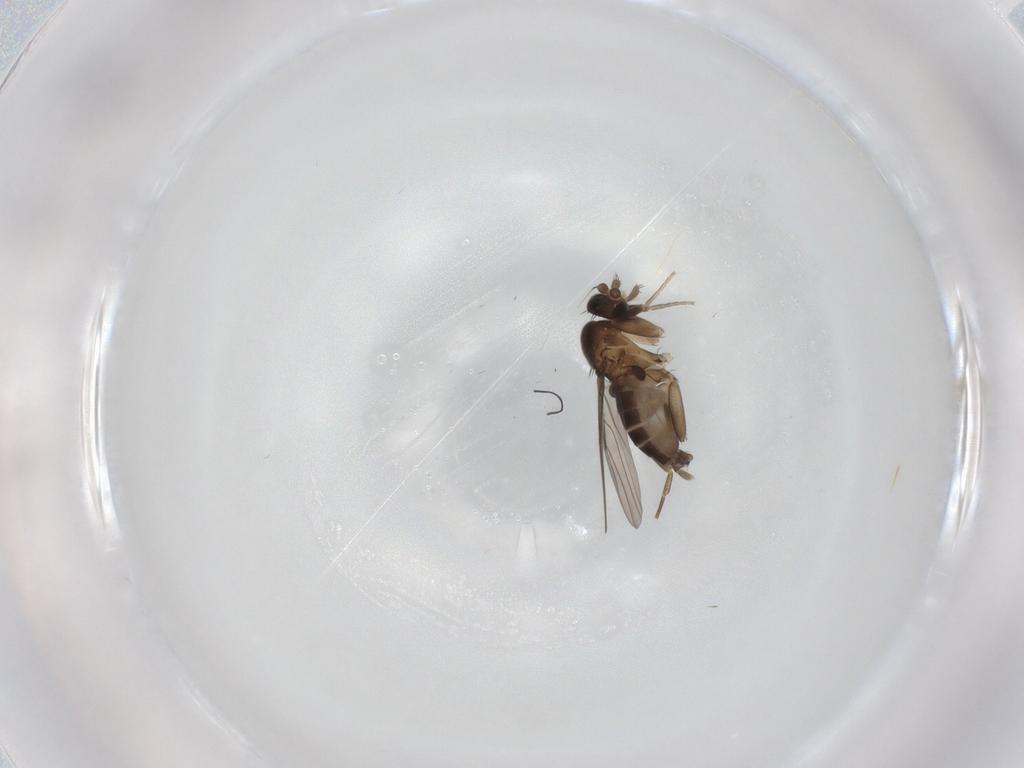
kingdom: Animalia
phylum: Arthropoda
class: Insecta
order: Diptera
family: Phoridae
